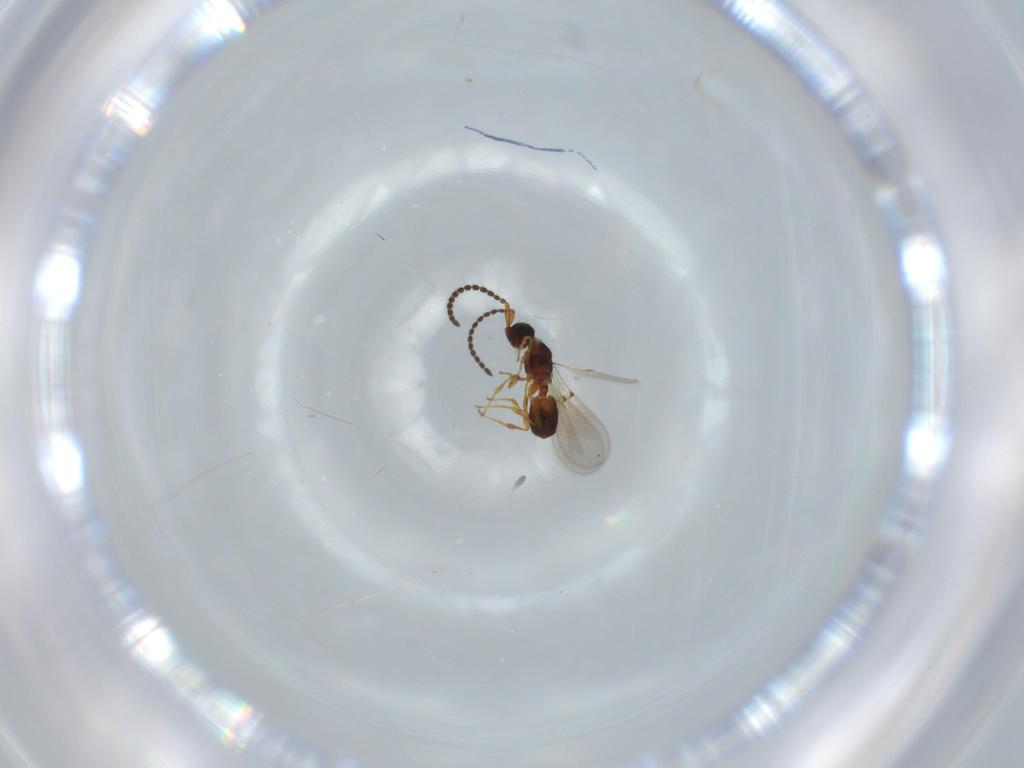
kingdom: Animalia
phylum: Arthropoda
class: Insecta
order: Hymenoptera
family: Diapriidae
